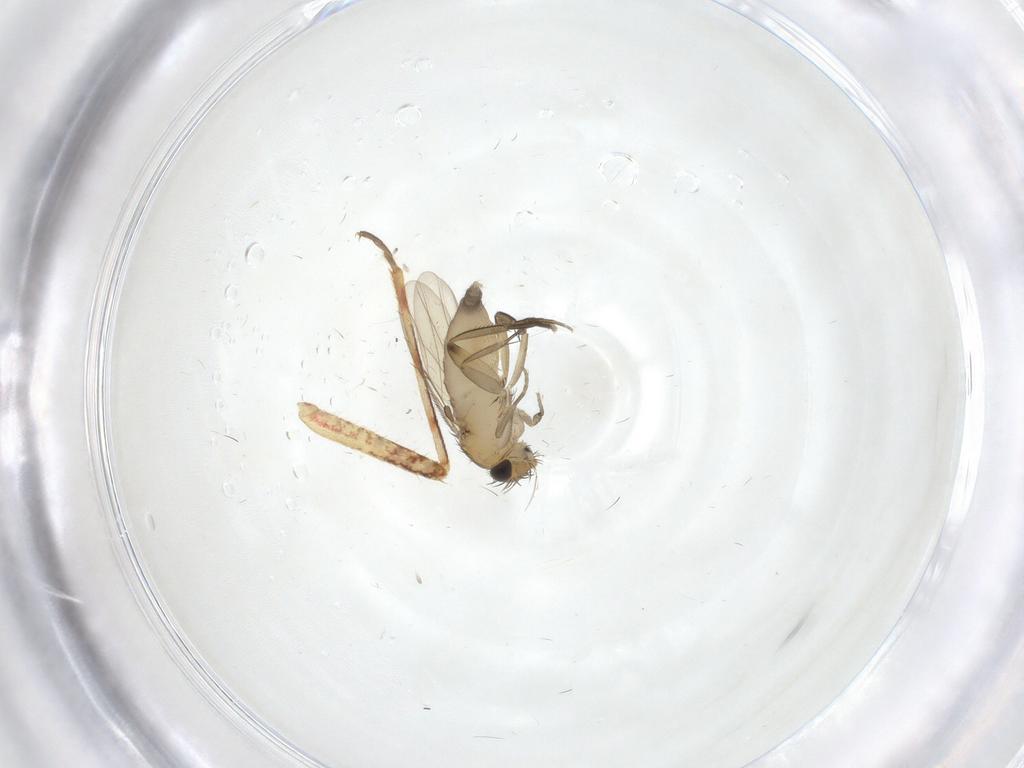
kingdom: Animalia
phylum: Arthropoda
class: Insecta
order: Diptera
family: Phoridae
